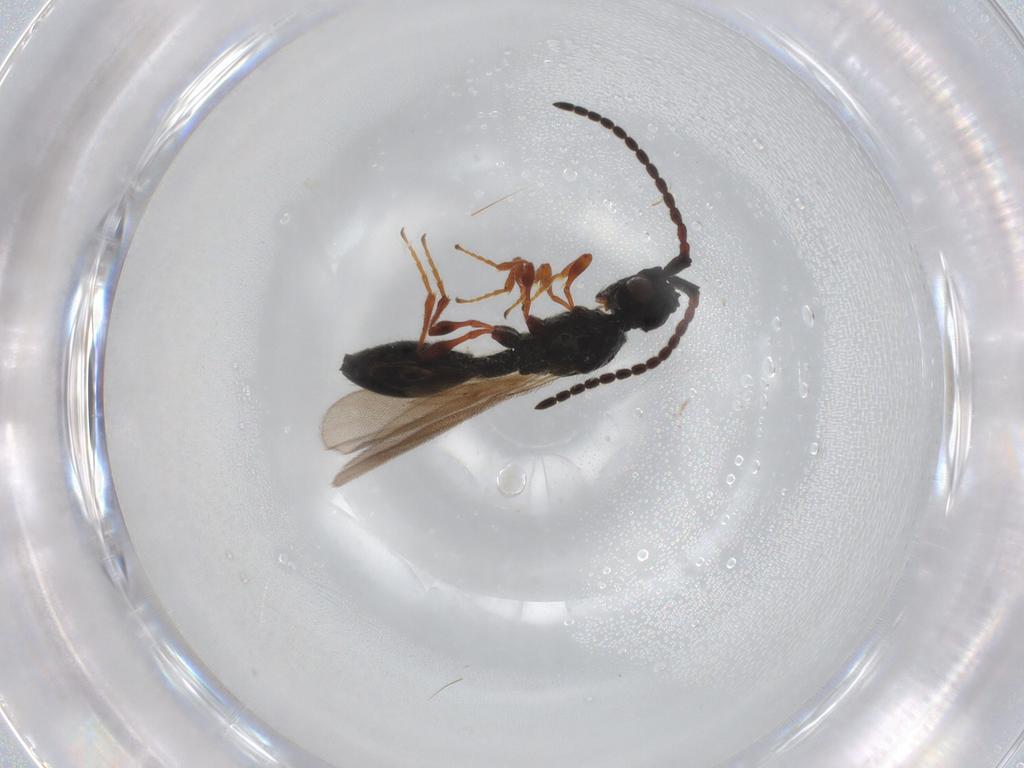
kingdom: Animalia
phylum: Arthropoda
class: Insecta
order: Hymenoptera
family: Diapriidae
